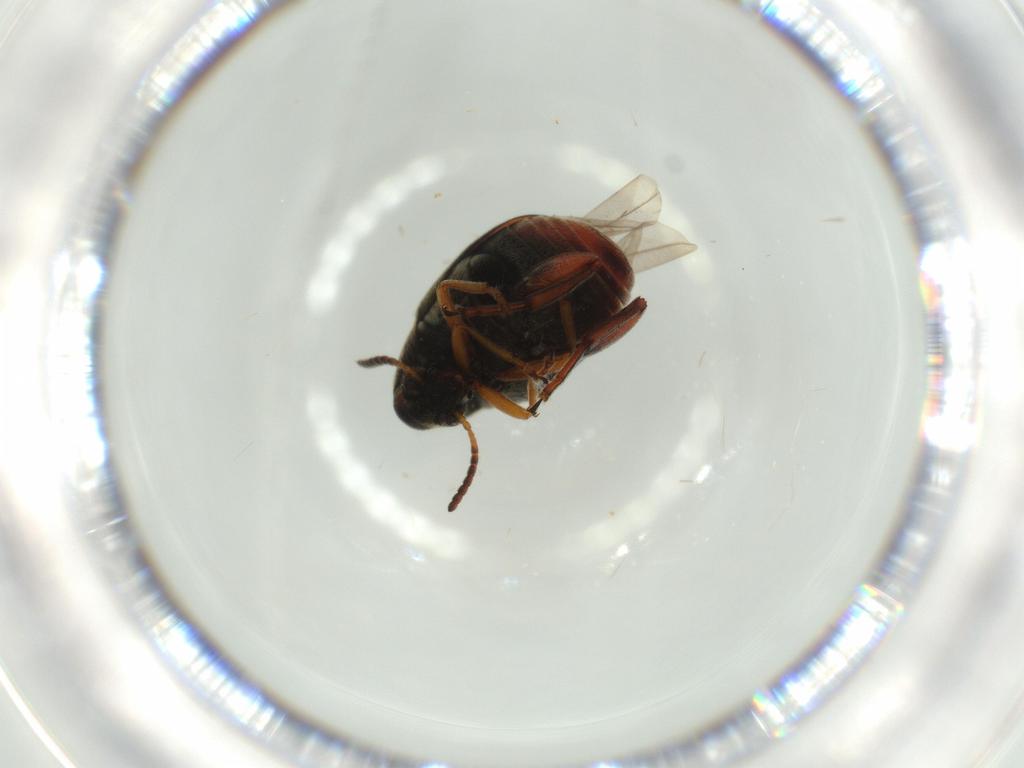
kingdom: Animalia
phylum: Arthropoda
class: Insecta
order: Coleoptera
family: Chrysomelidae
